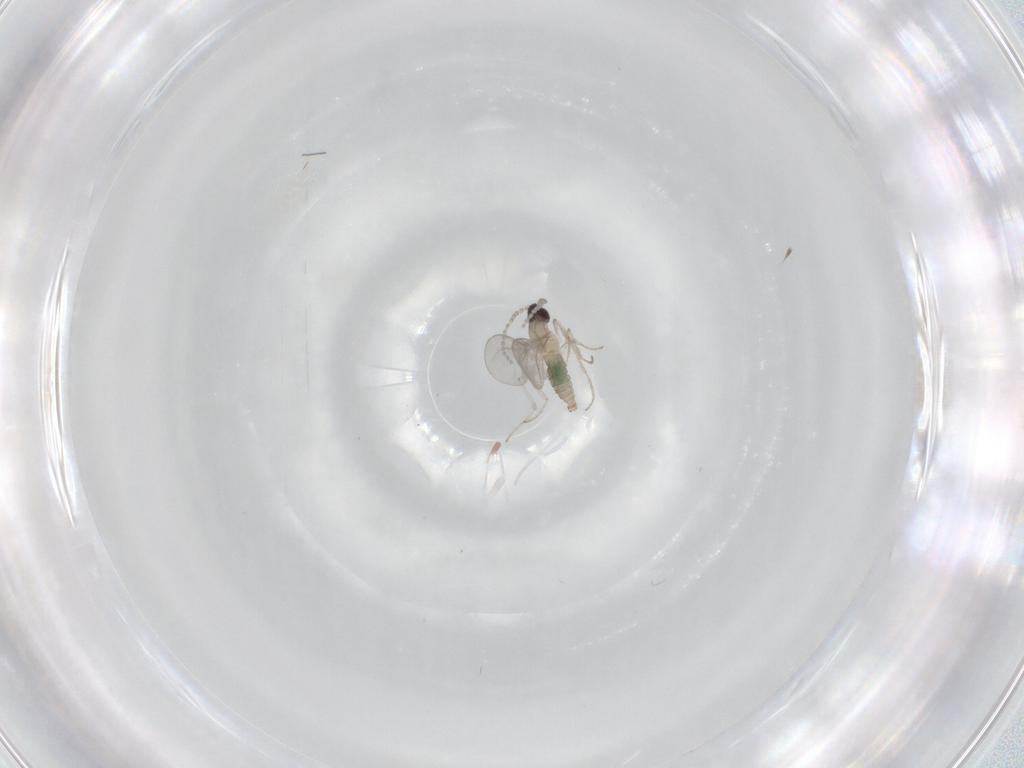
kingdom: Animalia
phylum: Arthropoda
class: Insecta
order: Diptera
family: Cecidomyiidae
